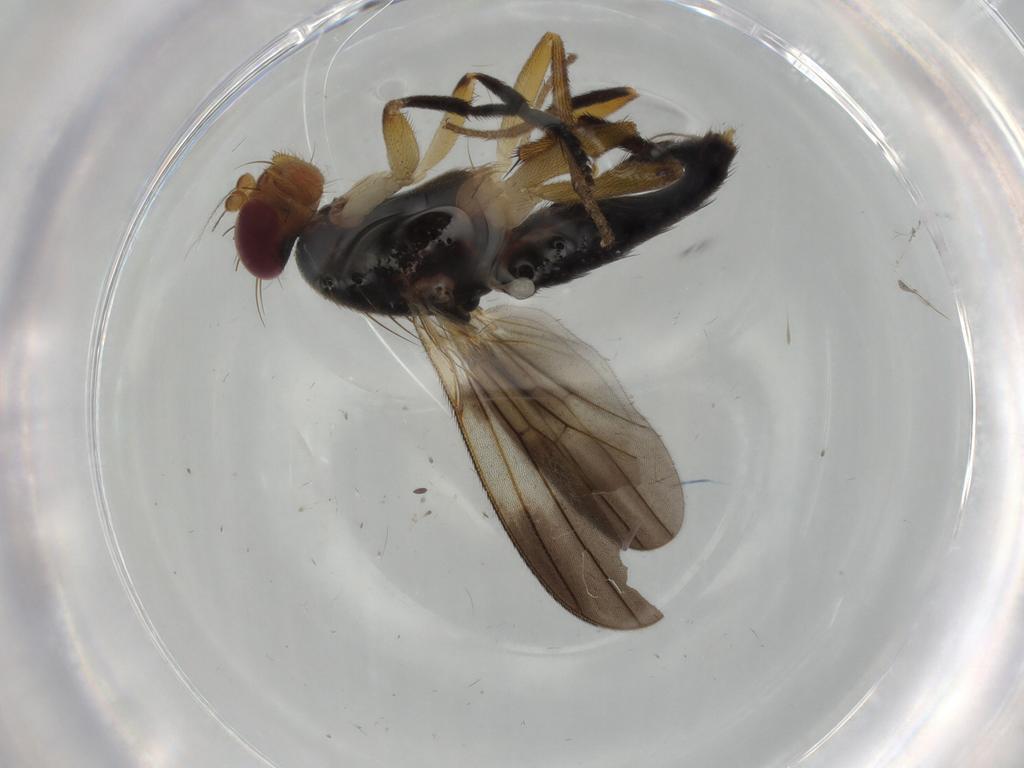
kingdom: Animalia
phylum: Arthropoda
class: Insecta
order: Diptera
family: Clusiidae
